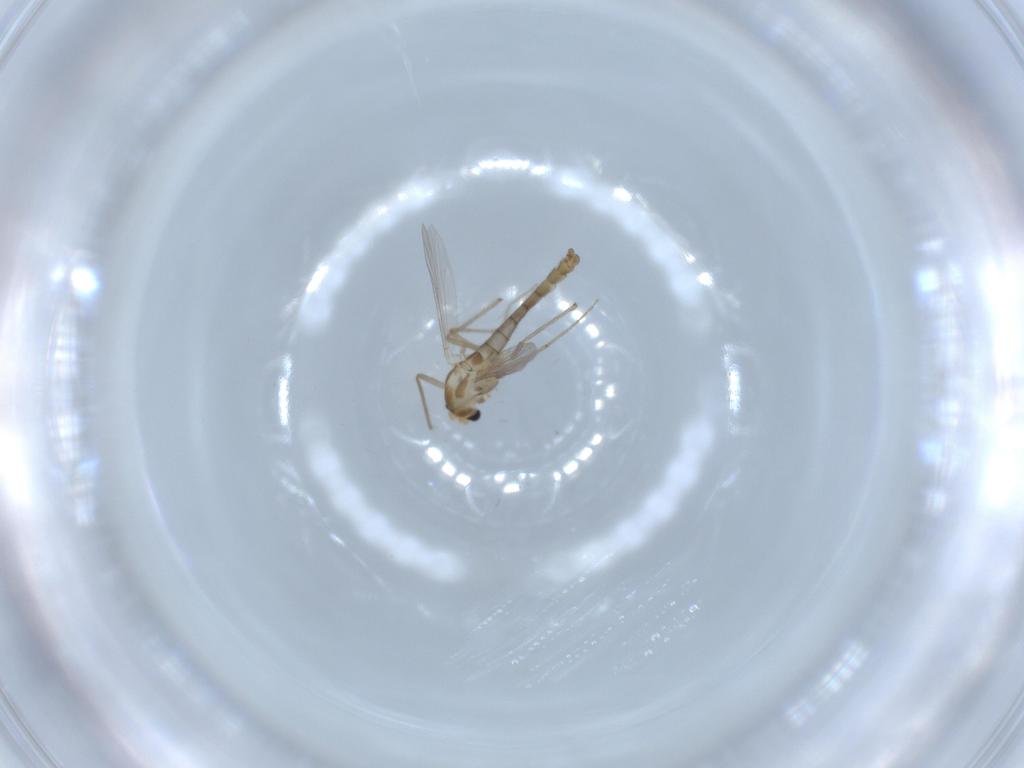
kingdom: Animalia
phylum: Arthropoda
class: Insecta
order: Diptera
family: Chironomidae
